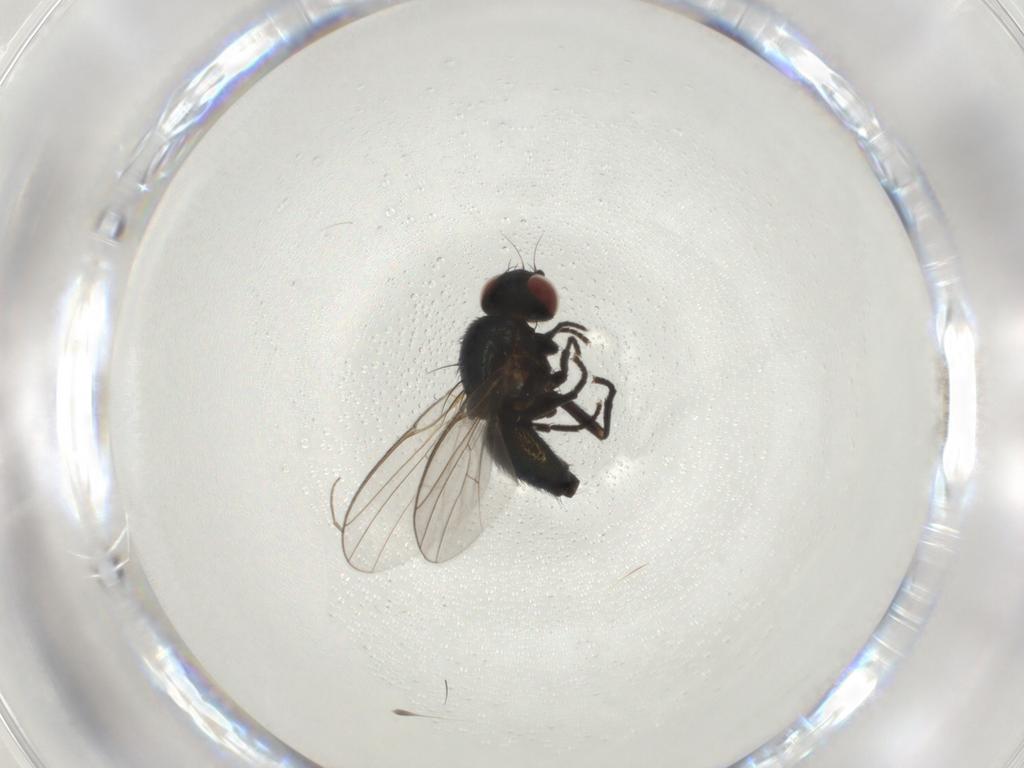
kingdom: Animalia
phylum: Arthropoda
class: Insecta
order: Diptera
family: Agromyzidae
